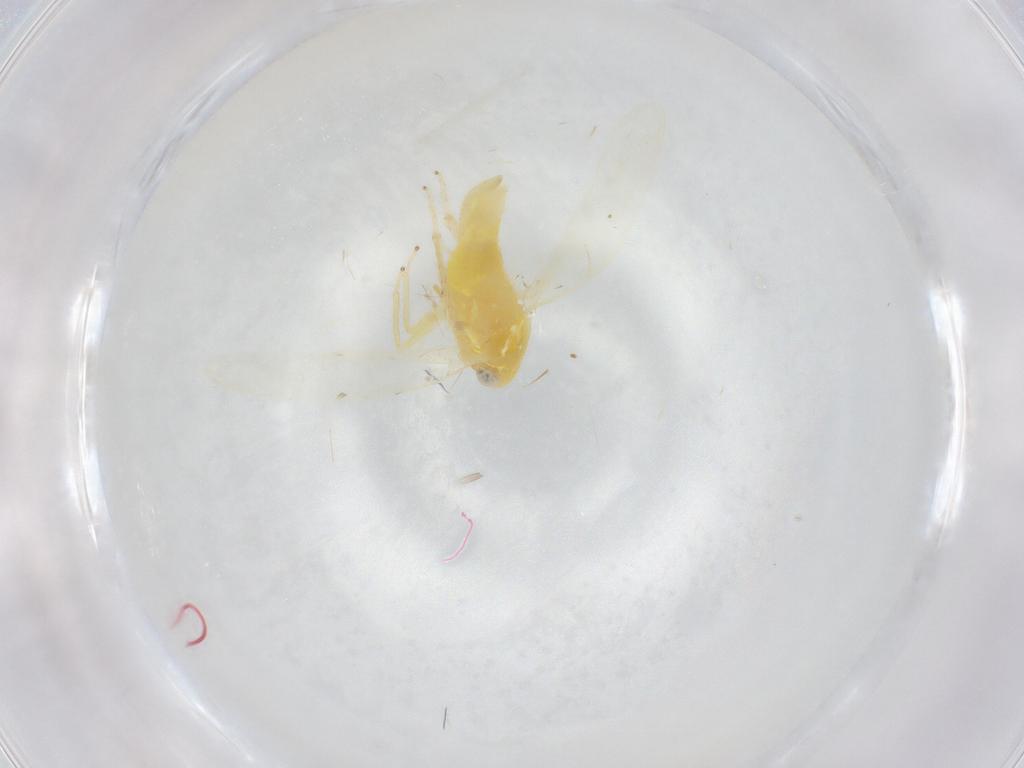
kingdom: Animalia
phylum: Arthropoda
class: Insecta
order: Hemiptera
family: Cicadellidae
